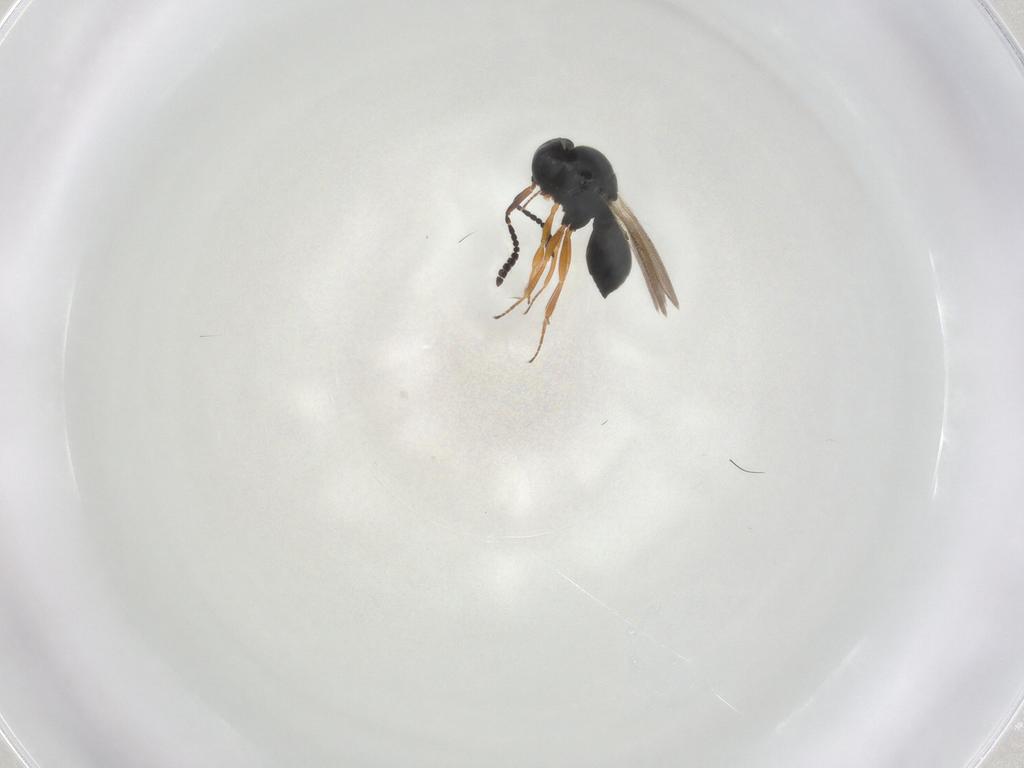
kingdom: Animalia
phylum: Arthropoda
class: Insecta
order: Hymenoptera
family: Scelionidae
